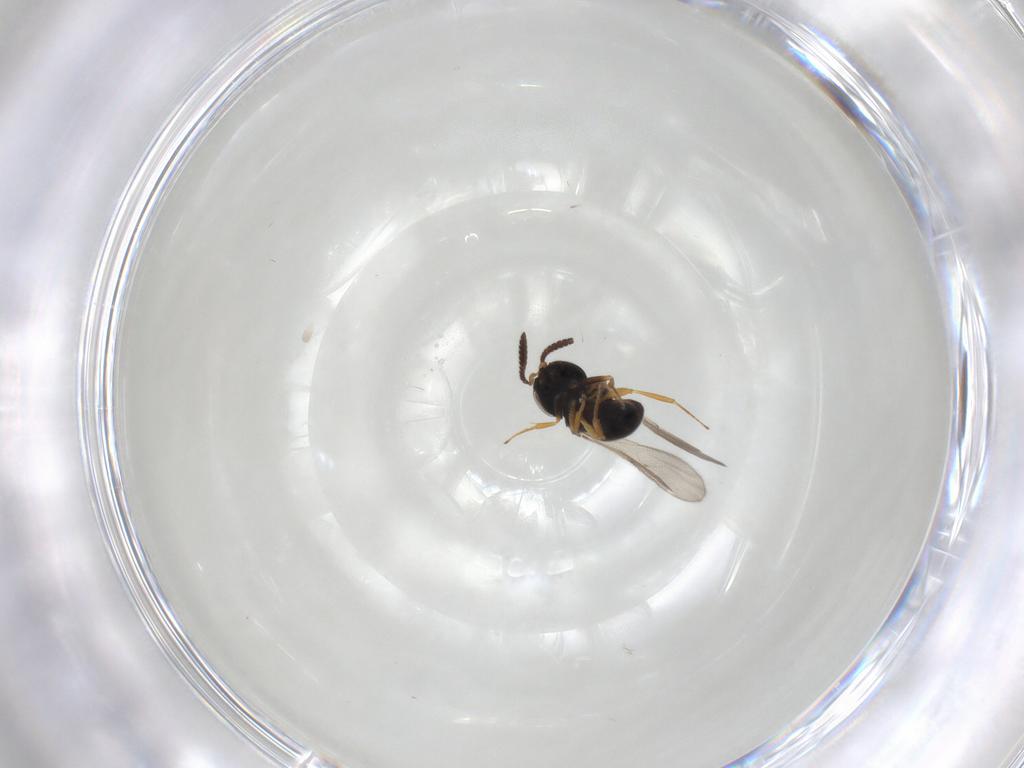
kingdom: Animalia
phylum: Arthropoda
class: Insecta
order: Hymenoptera
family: Scelionidae
